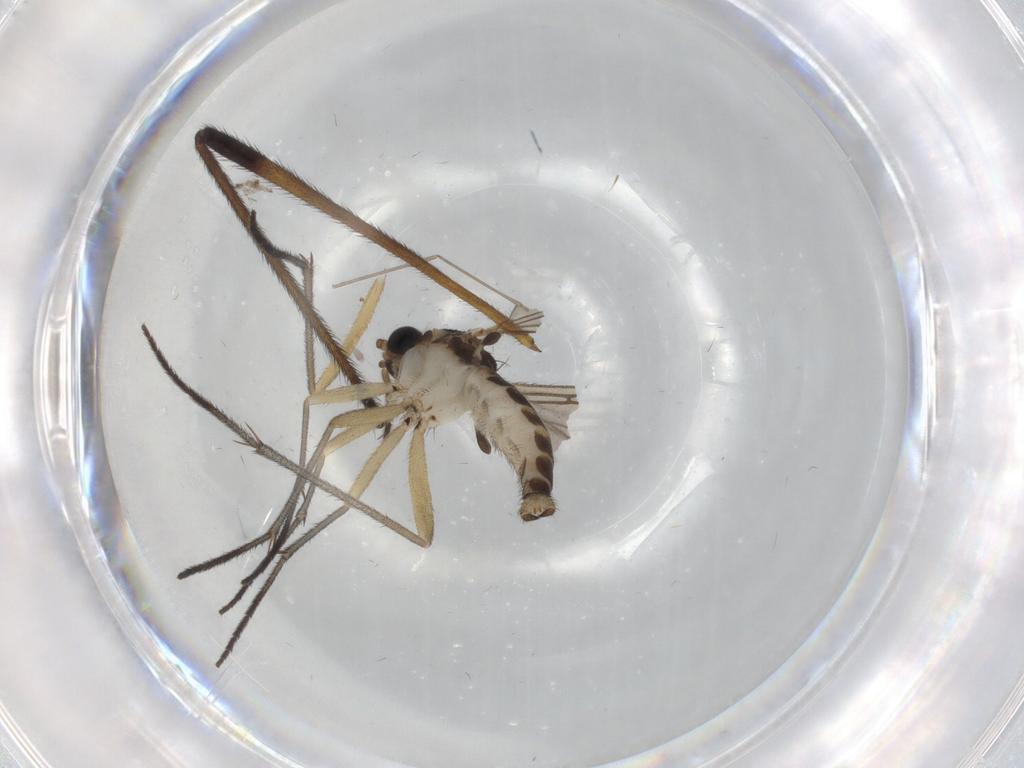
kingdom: Animalia
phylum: Arthropoda
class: Insecta
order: Diptera
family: Sciaridae
